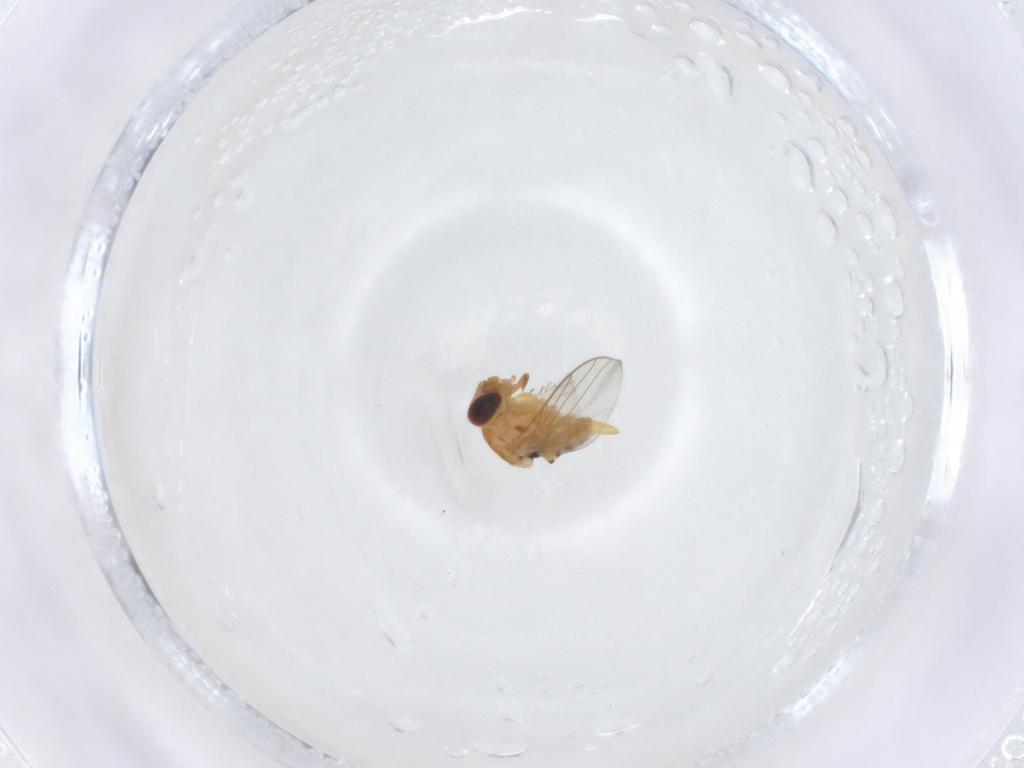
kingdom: Animalia
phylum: Arthropoda
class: Insecta
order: Diptera
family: Chloropidae
